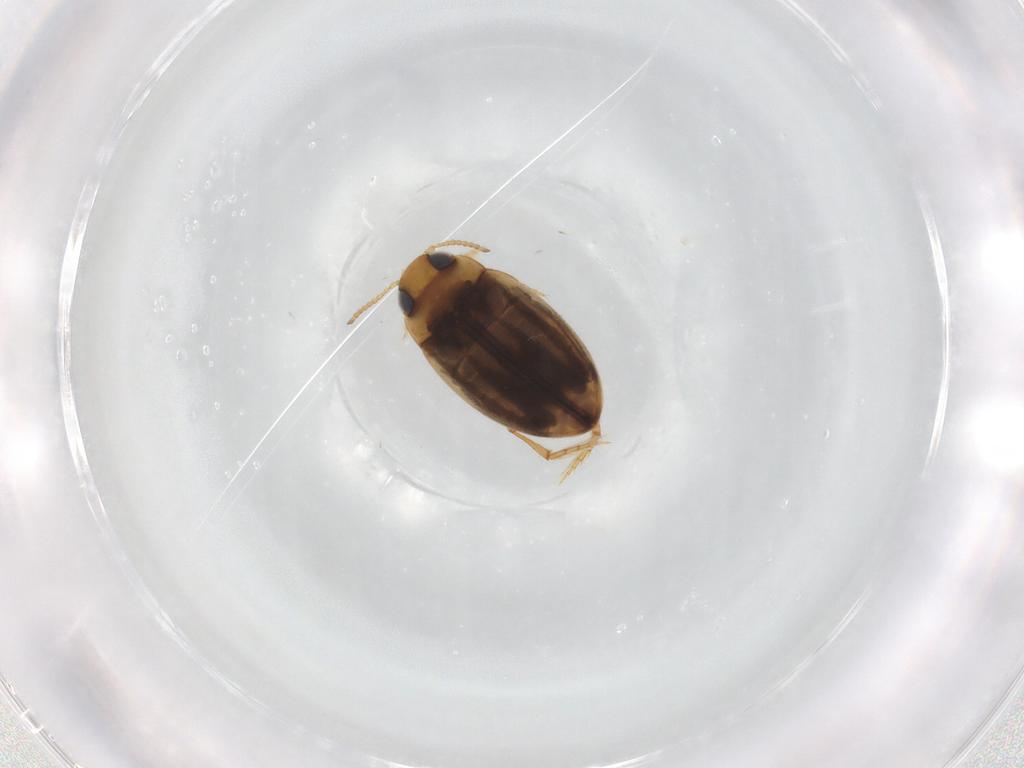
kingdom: Animalia
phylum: Arthropoda
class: Insecta
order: Coleoptera
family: Dytiscidae
